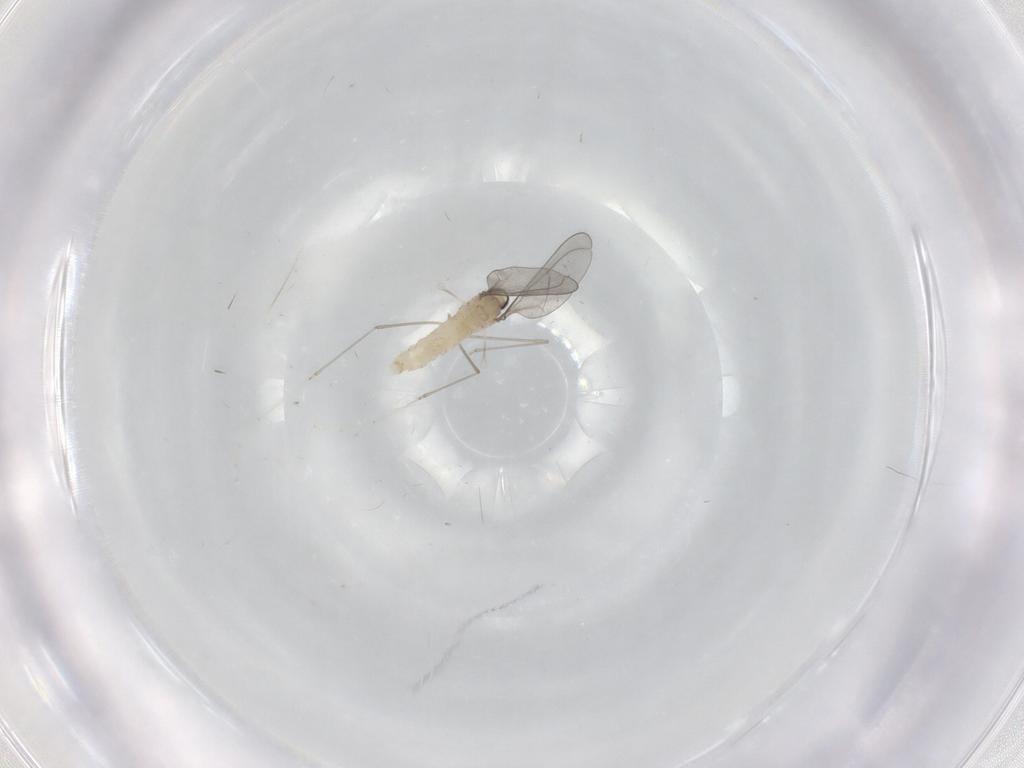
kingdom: Animalia
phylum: Arthropoda
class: Insecta
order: Diptera
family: Cecidomyiidae
